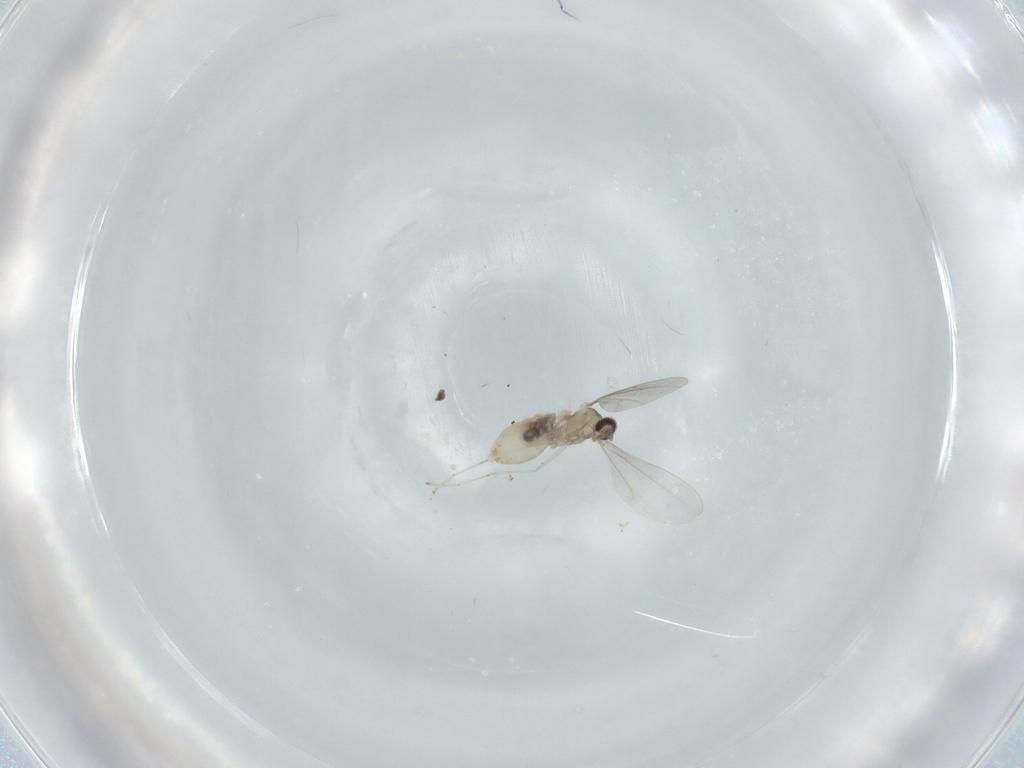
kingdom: Animalia
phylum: Arthropoda
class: Insecta
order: Diptera
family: Cecidomyiidae
